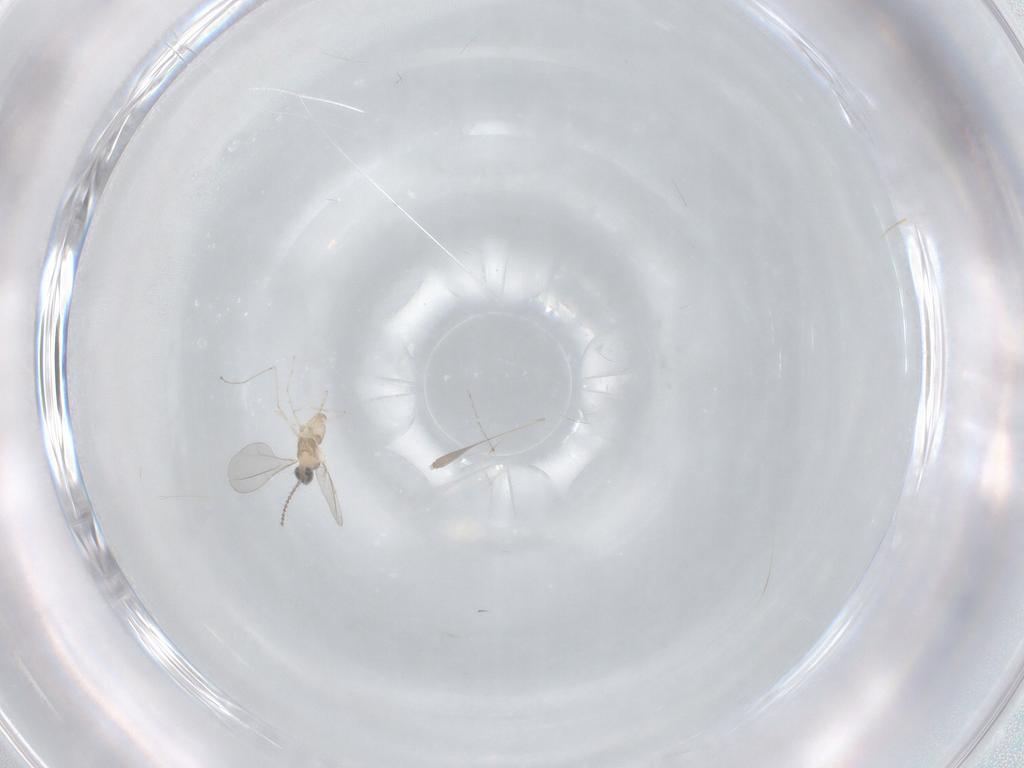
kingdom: Animalia
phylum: Arthropoda
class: Insecta
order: Diptera
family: Cecidomyiidae
